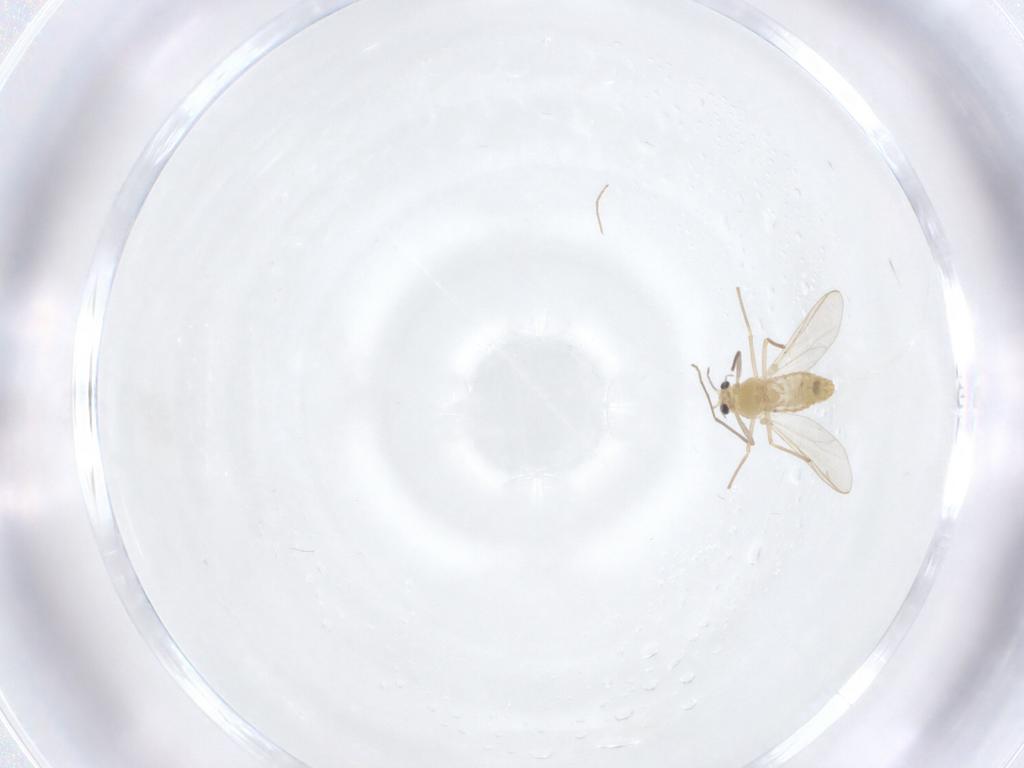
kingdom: Animalia
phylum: Arthropoda
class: Insecta
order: Diptera
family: Chironomidae
